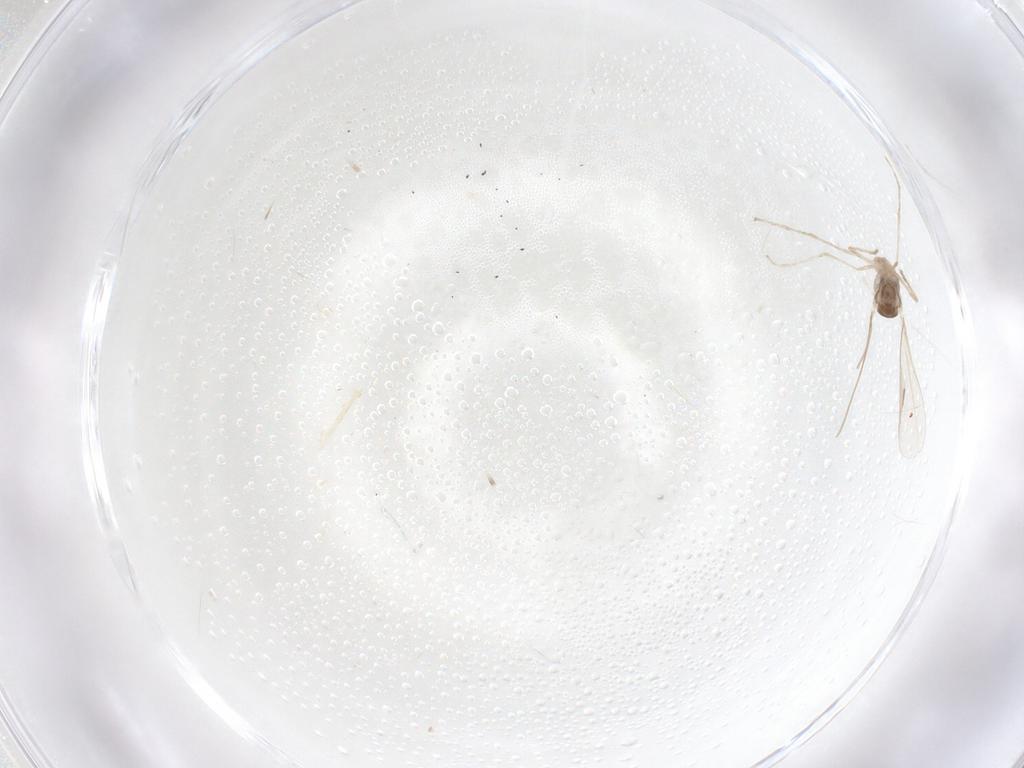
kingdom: Animalia
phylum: Arthropoda
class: Insecta
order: Diptera
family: Cecidomyiidae
